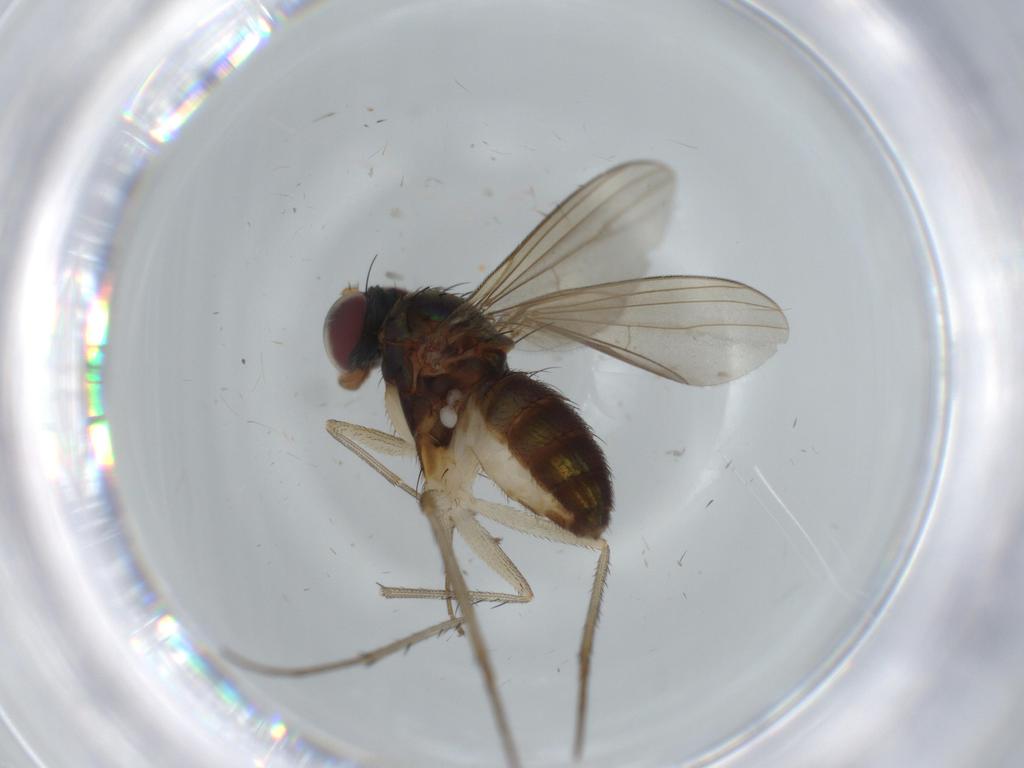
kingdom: Animalia
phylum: Arthropoda
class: Insecta
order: Diptera
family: Dolichopodidae
